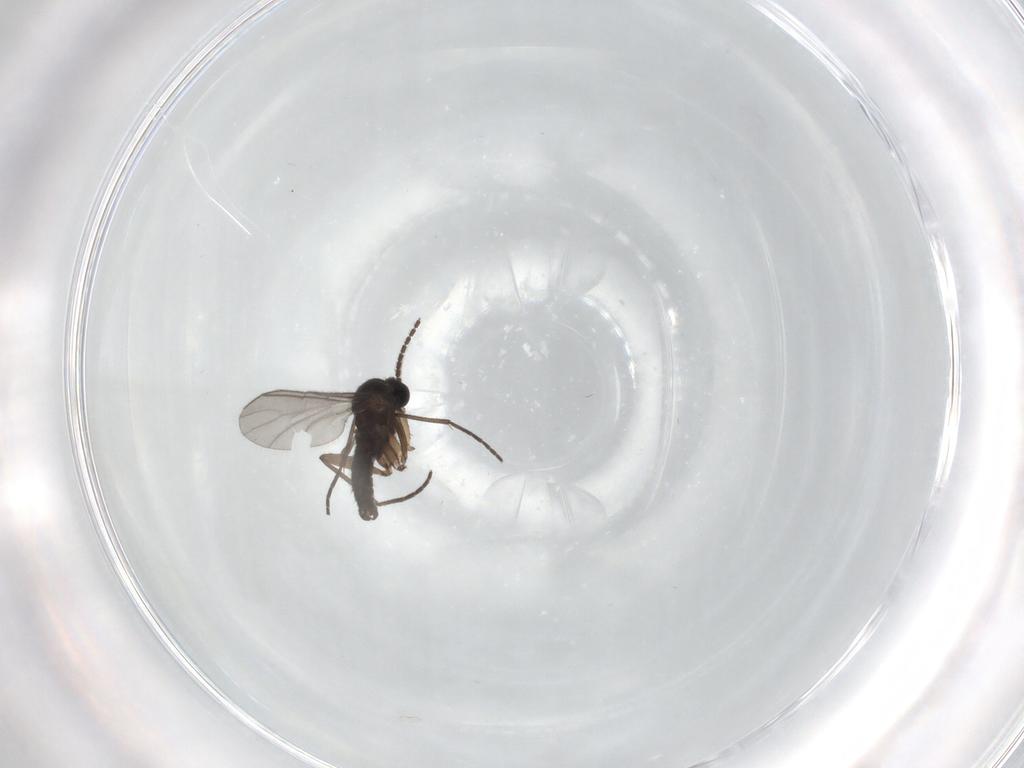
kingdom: Animalia
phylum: Arthropoda
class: Insecta
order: Diptera
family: Sciaridae
